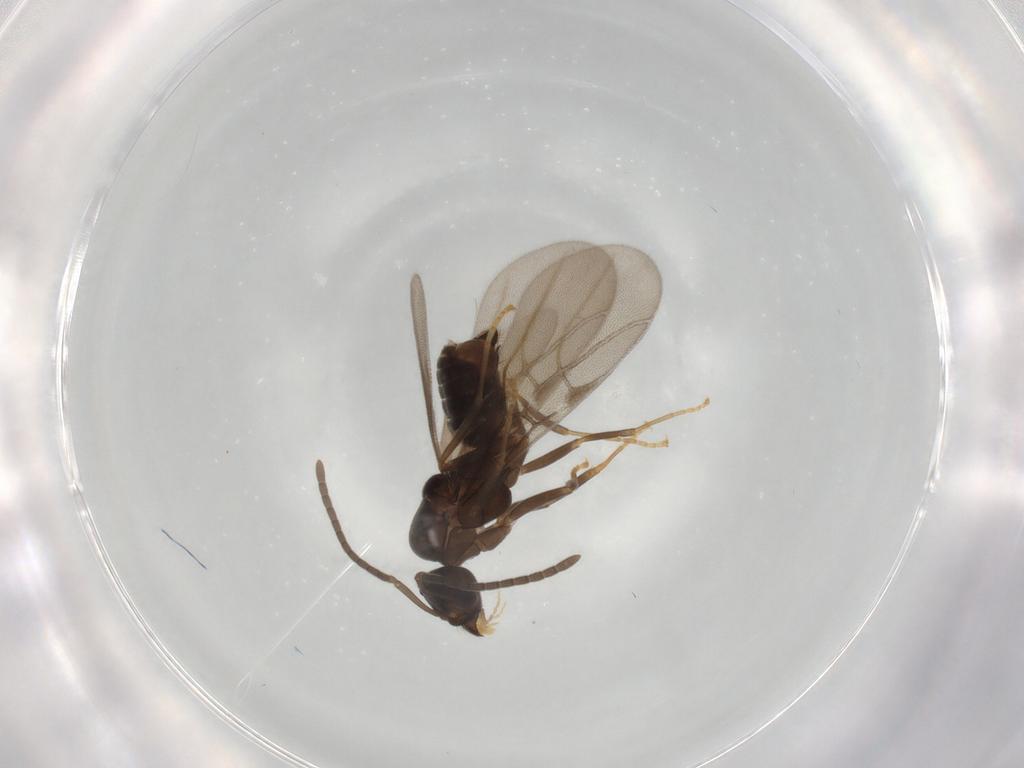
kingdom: Animalia
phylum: Arthropoda
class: Insecta
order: Hymenoptera
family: Formicidae
